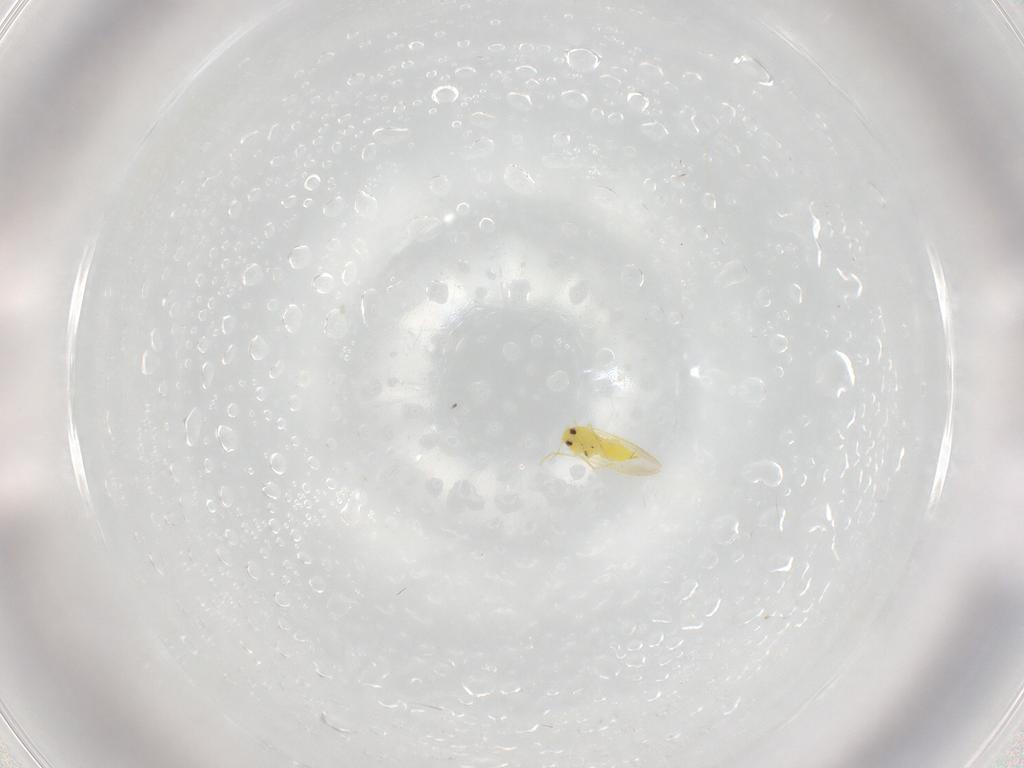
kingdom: Animalia
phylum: Arthropoda
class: Insecta
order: Hemiptera
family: Aleyrodidae
